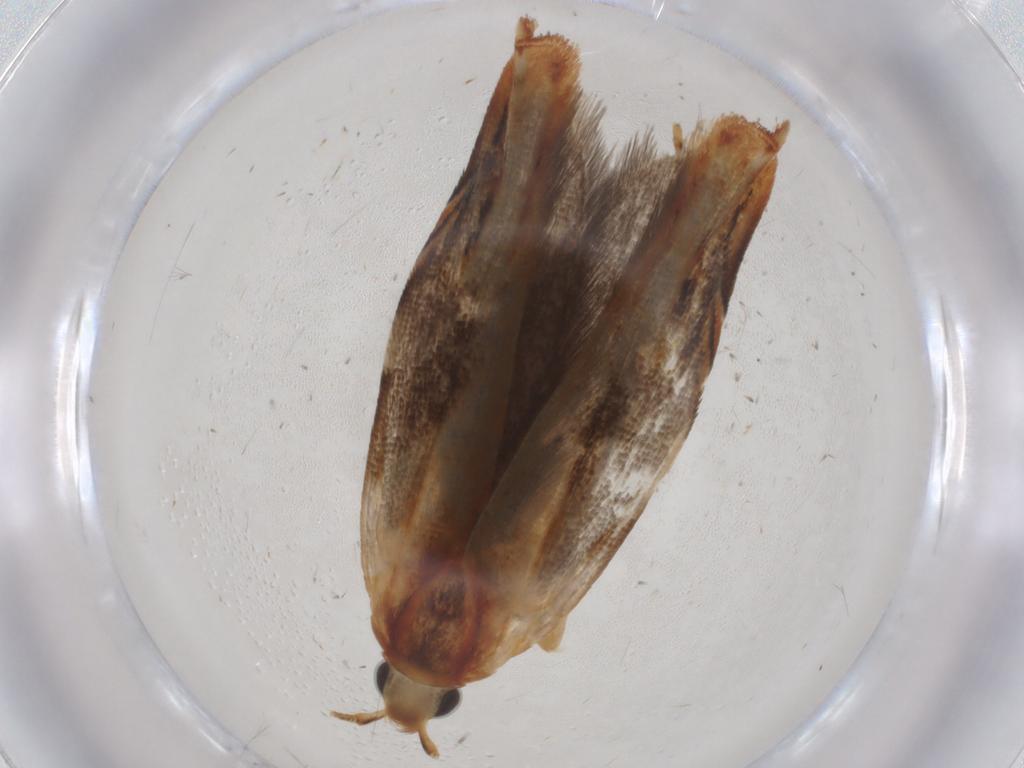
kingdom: Animalia
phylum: Arthropoda
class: Insecta
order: Lepidoptera
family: Gelechiidae
